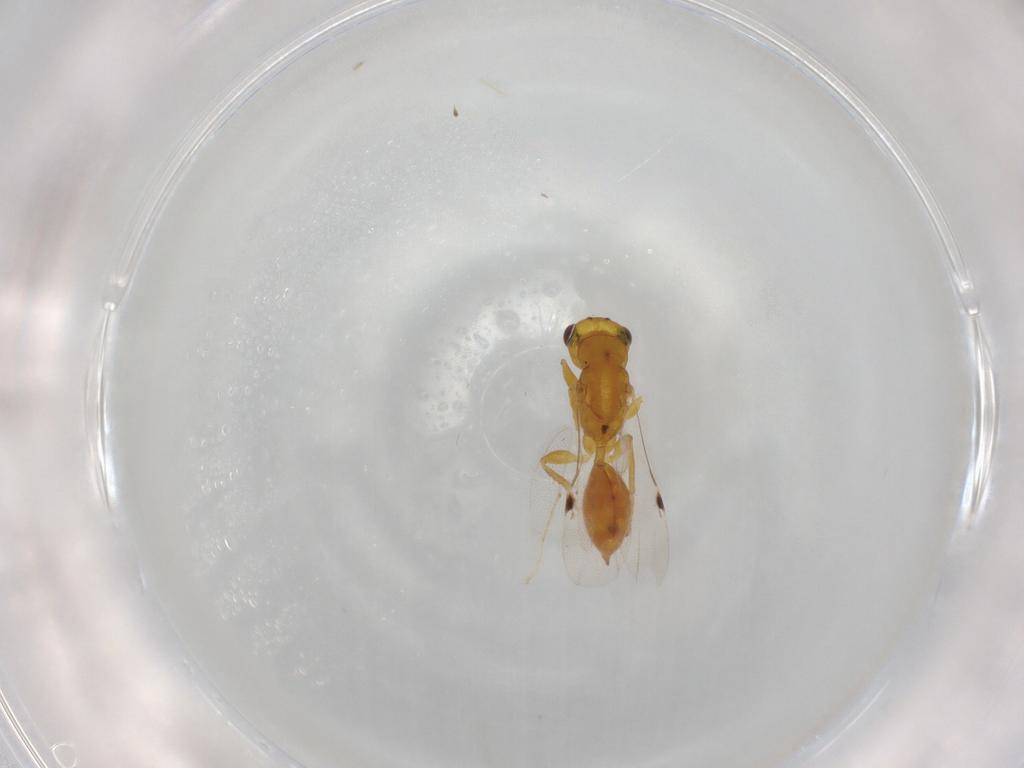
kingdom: Animalia
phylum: Arthropoda
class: Insecta
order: Hymenoptera
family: Eurytomidae
